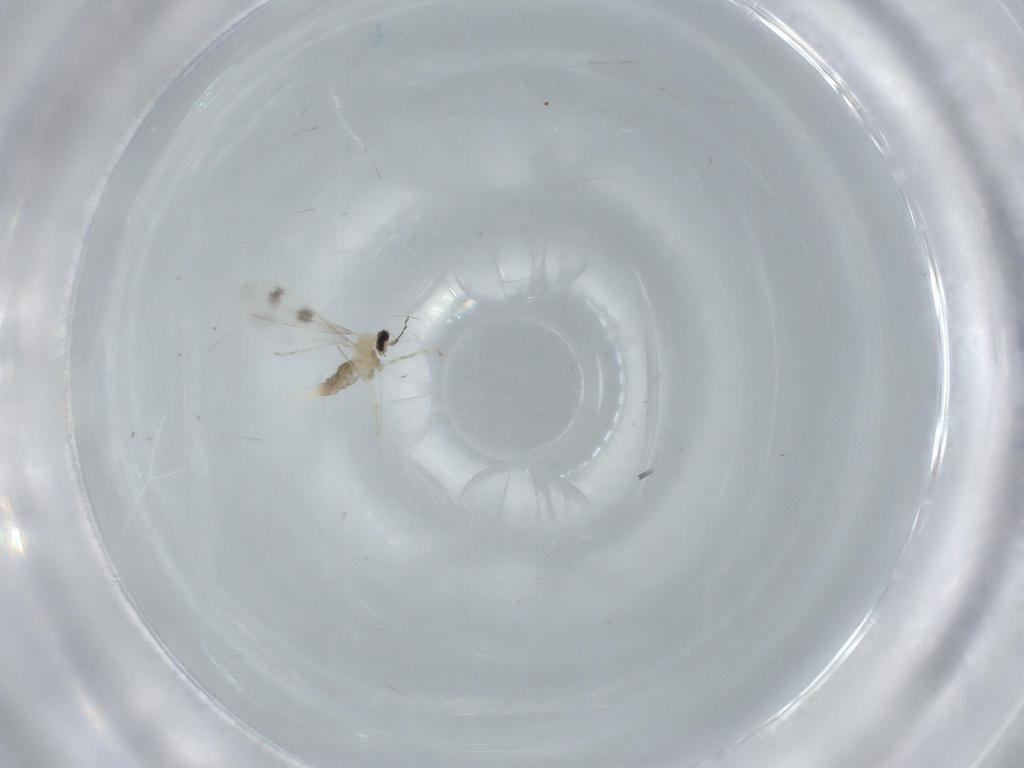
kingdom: Animalia
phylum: Arthropoda
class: Insecta
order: Diptera
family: Cecidomyiidae
